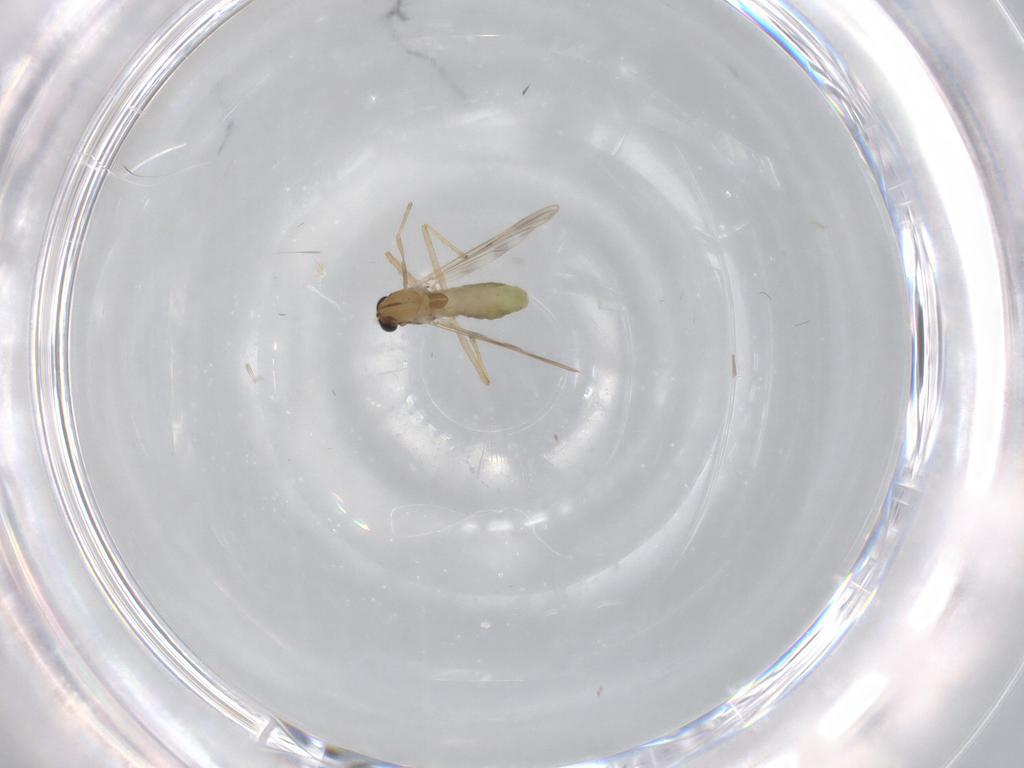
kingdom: Animalia
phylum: Arthropoda
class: Insecta
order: Diptera
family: Chironomidae
